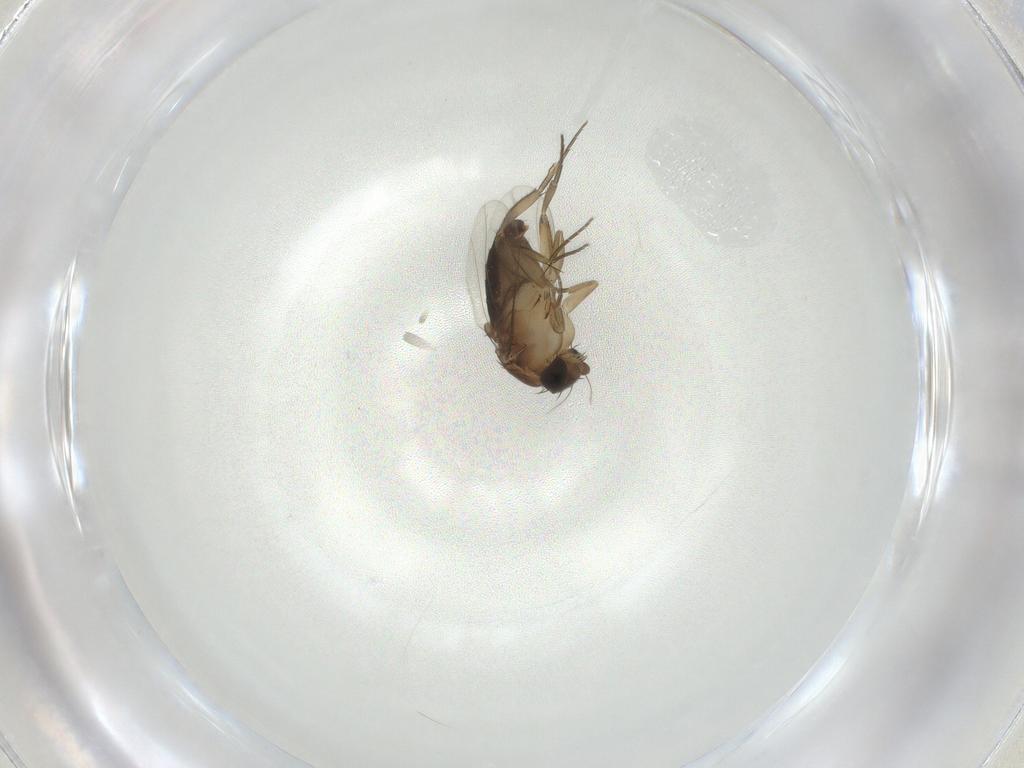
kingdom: Animalia
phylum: Arthropoda
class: Insecta
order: Diptera
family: Phoridae
